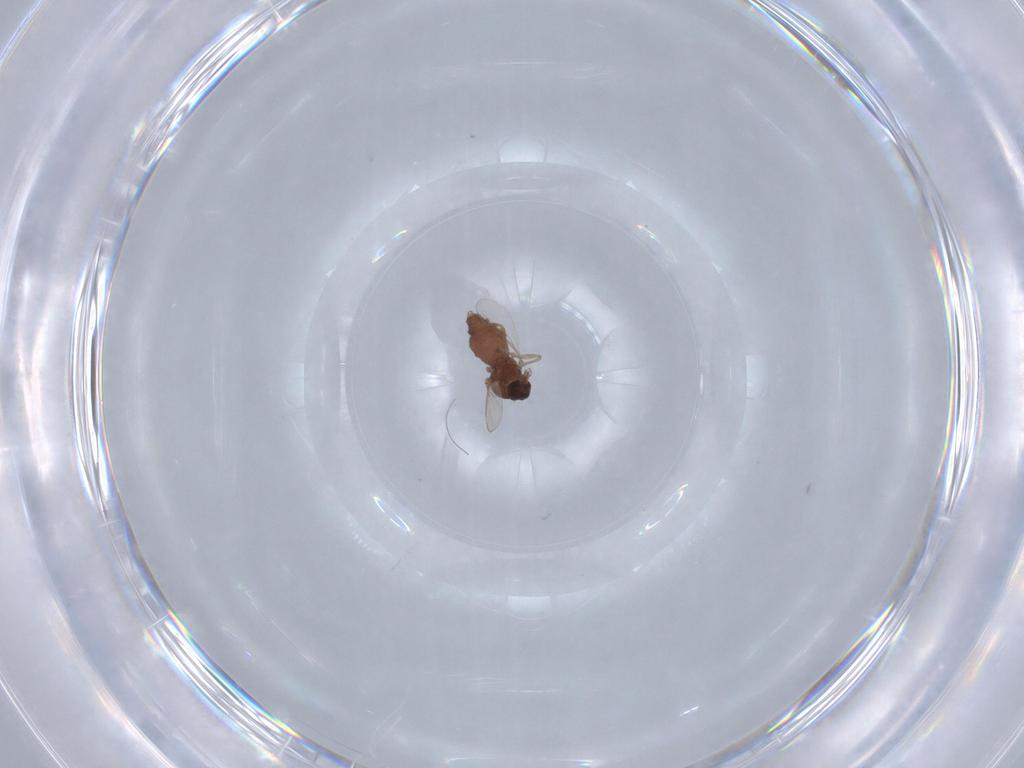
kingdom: Animalia
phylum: Arthropoda
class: Insecta
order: Diptera
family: Ceratopogonidae
